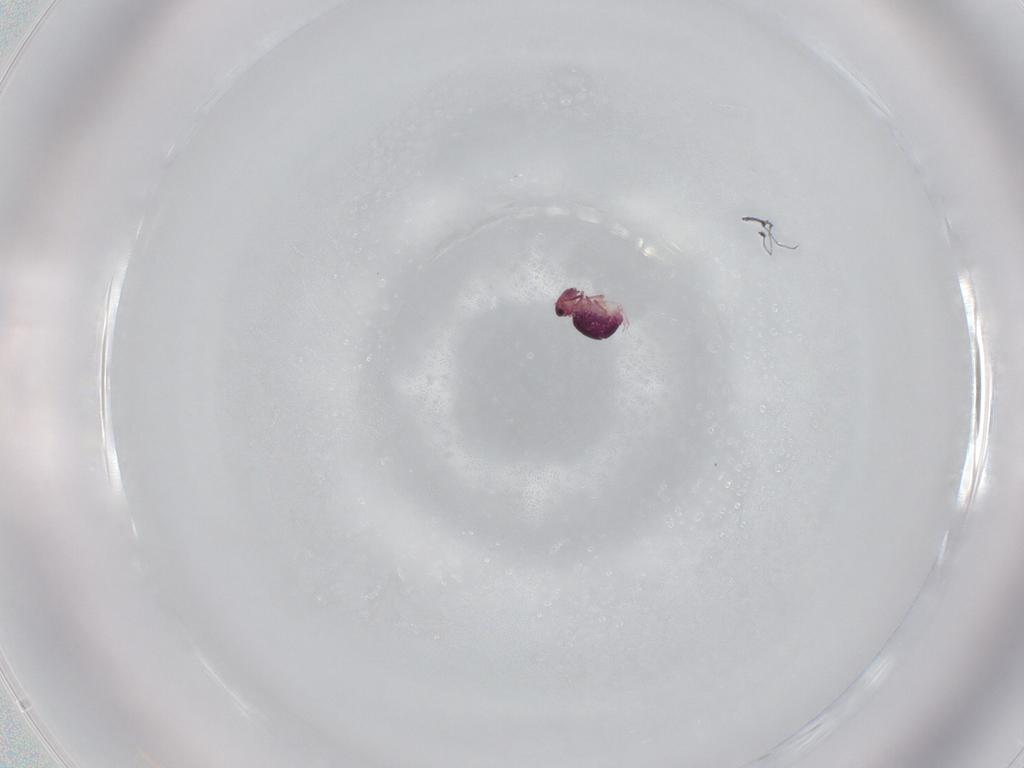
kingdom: Animalia
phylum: Arthropoda
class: Collembola
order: Symphypleona
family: Sminthurididae
